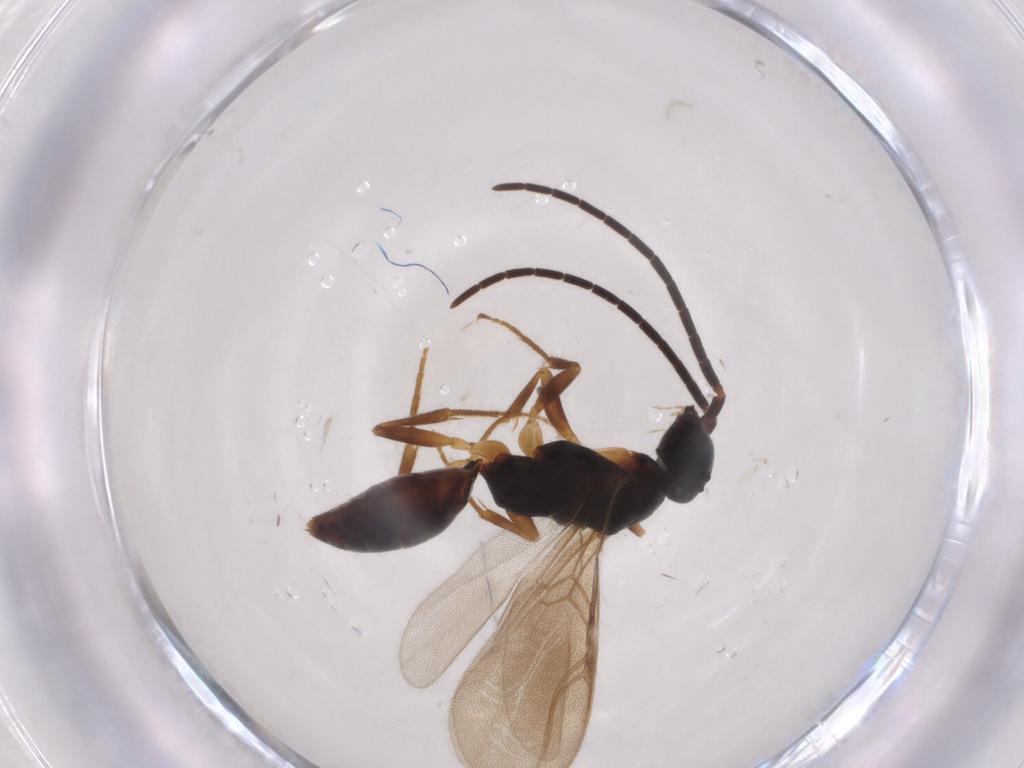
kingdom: Animalia
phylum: Arthropoda
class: Insecta
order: Hymenoptera
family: Braconidae
